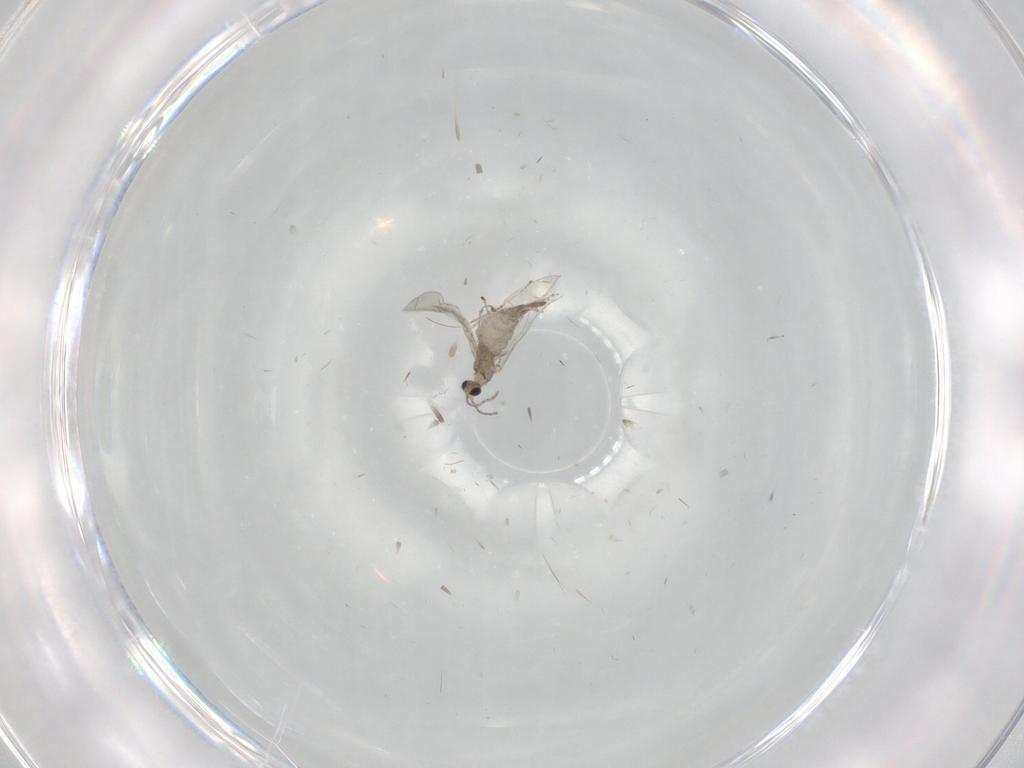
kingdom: Animalia
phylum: Arthropoda
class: Insecta
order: Diptera
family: Cecidomyiidae
